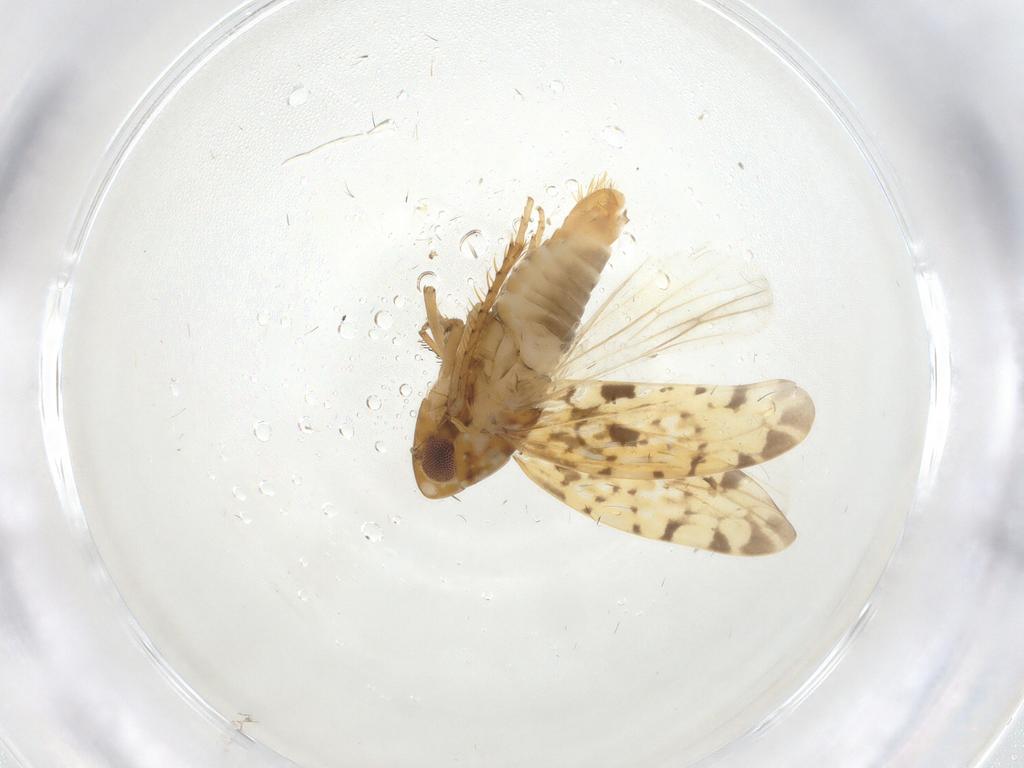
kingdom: Animalia
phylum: Arthropoda
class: Insecta
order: Hemiptera
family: Cicadellidae
